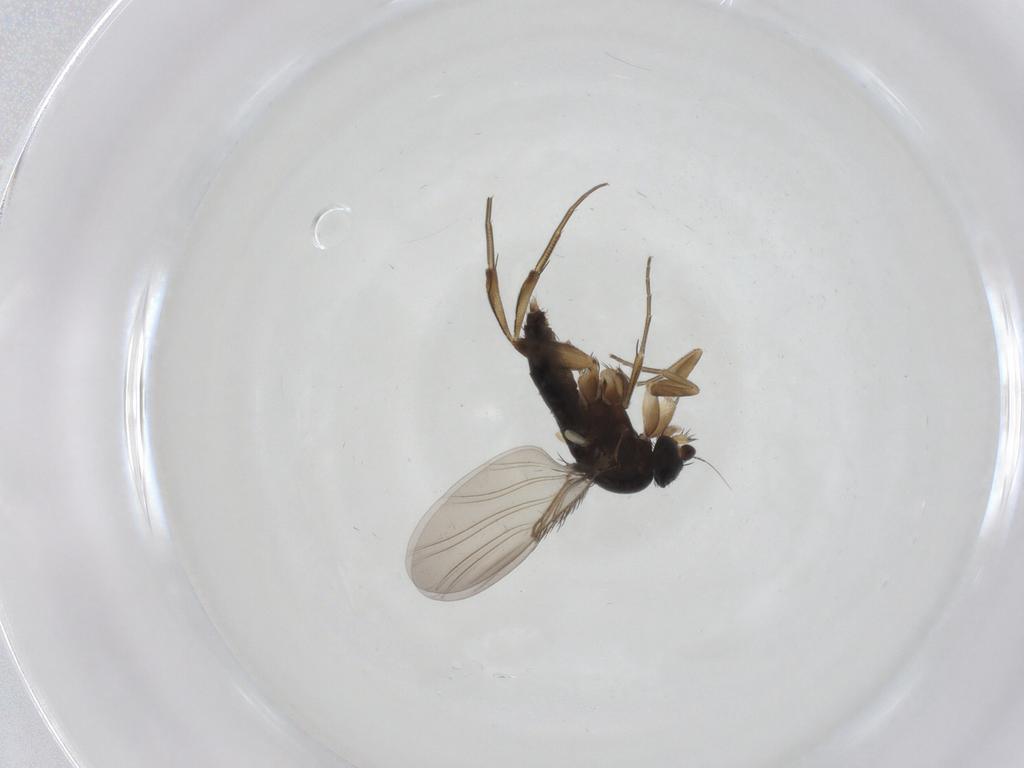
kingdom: Animalia
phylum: Arthropoda
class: Insecta
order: Diptera
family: Phoridae
